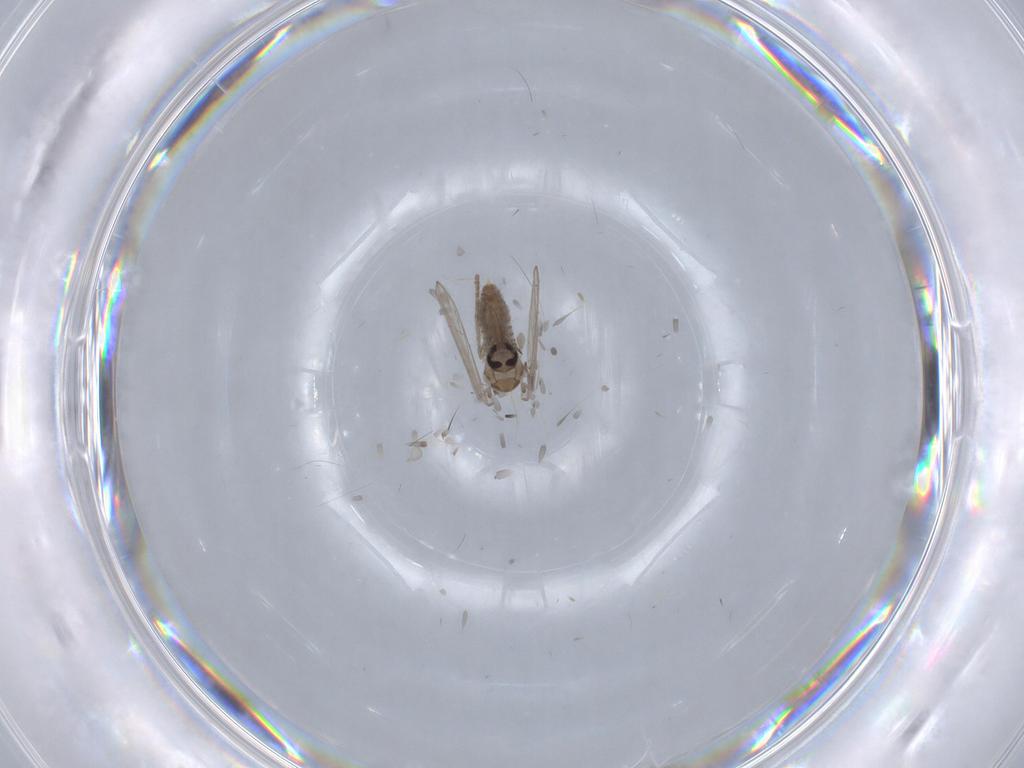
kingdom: Animalia
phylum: Arthropoda
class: Insecta
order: Diptera
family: Psychodidae
